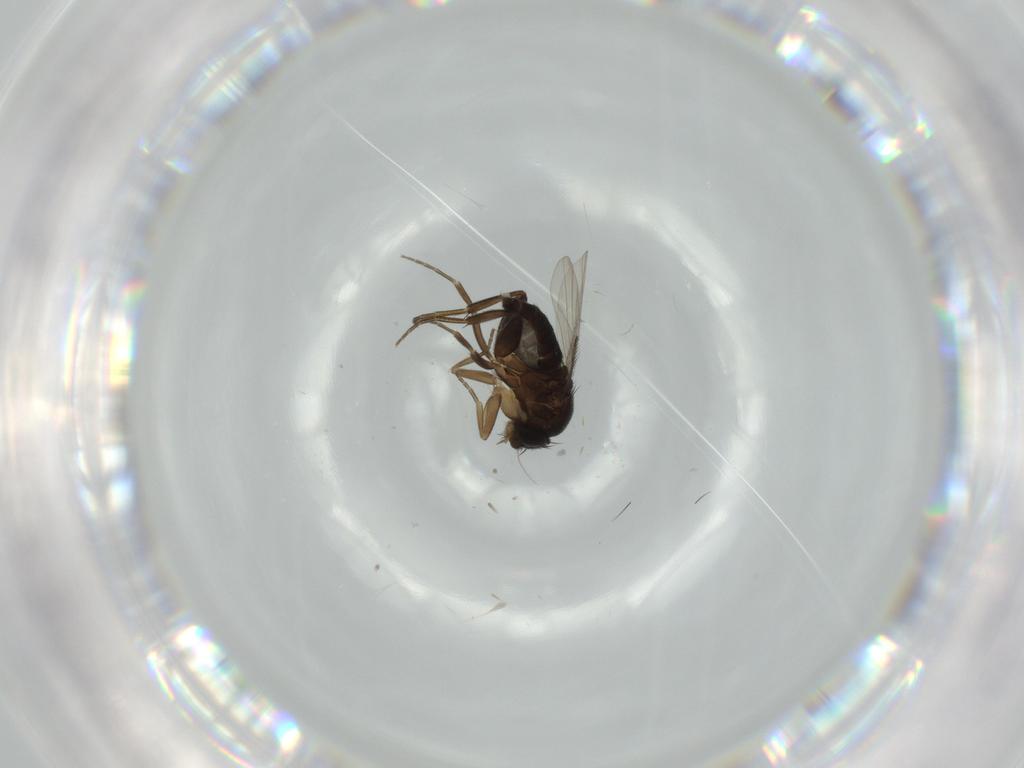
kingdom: Animalia
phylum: Arthropoda
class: Insecta
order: Diptera
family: Phoridae
